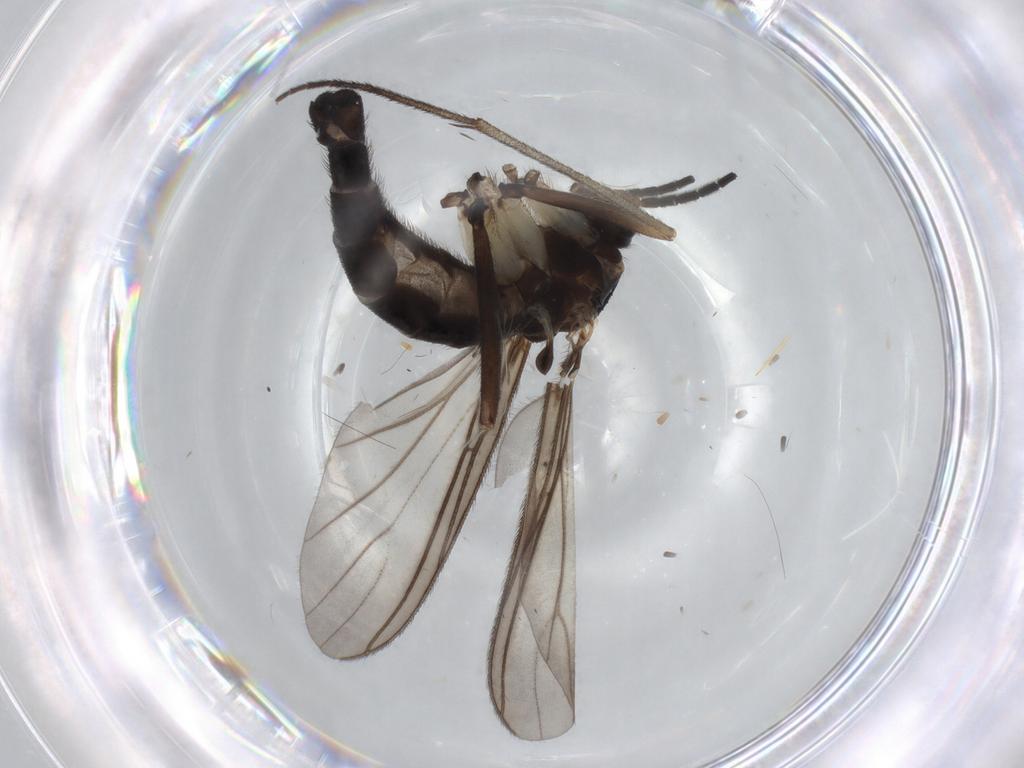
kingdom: Animalia
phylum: Arthropoda
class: Insecta
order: Diptera
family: Sciaridae
